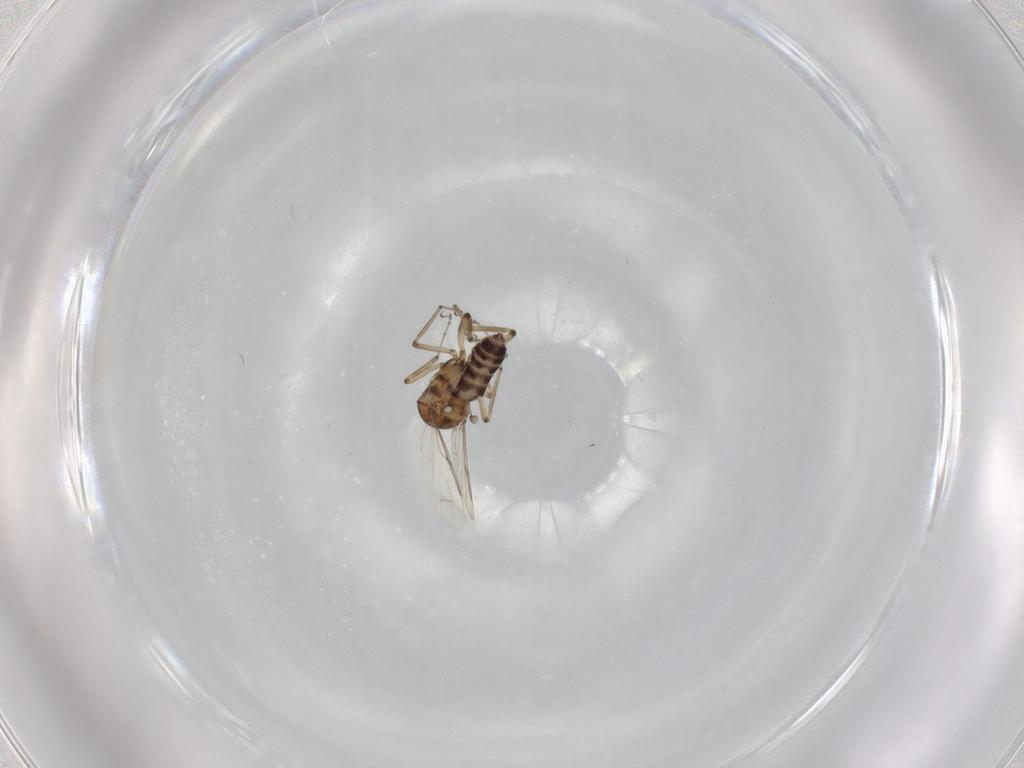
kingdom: Animalia
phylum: Arthropoda
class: Insecta
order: Diptera
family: Ceratopogonidae
